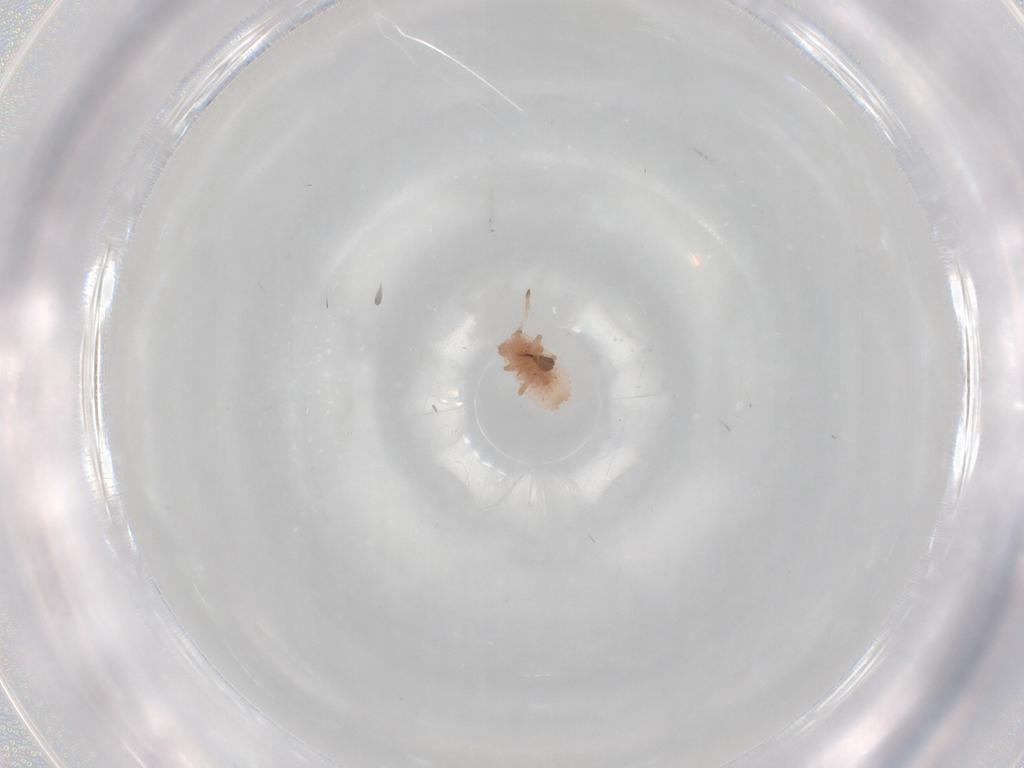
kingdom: Animalia
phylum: Arthropoda
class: Insecta
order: Hemiptera
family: Coccoidea_incertae_sedis
